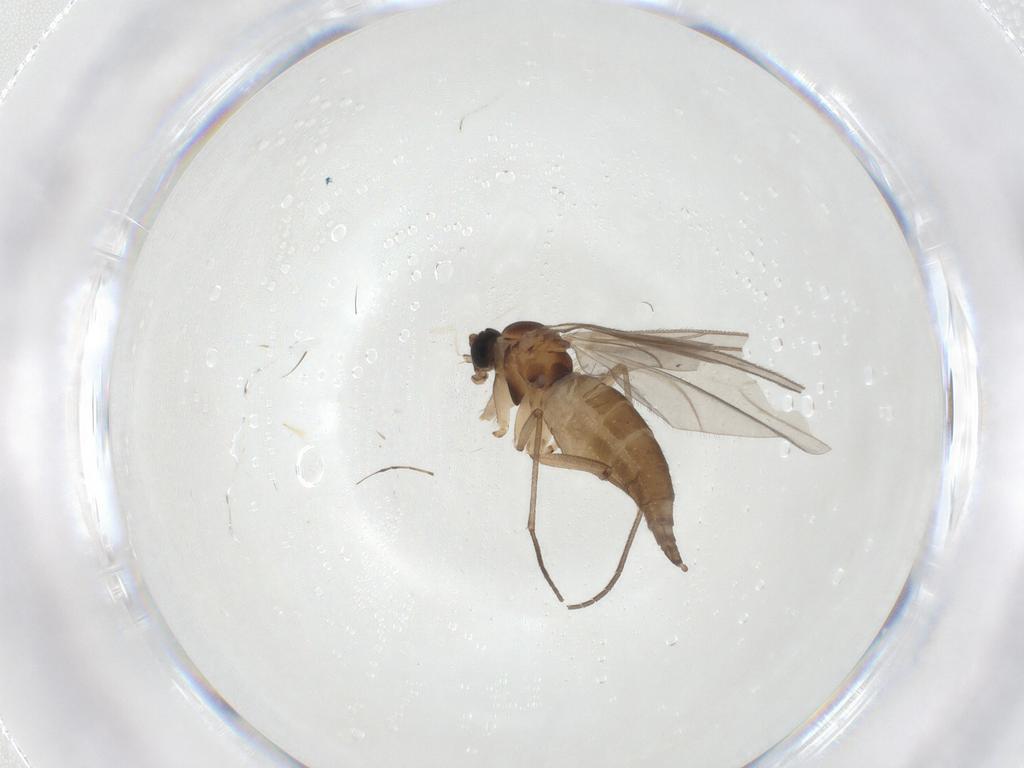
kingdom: Animalia
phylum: Arthropoda
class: Insecta
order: Diptera
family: Sciaridae
